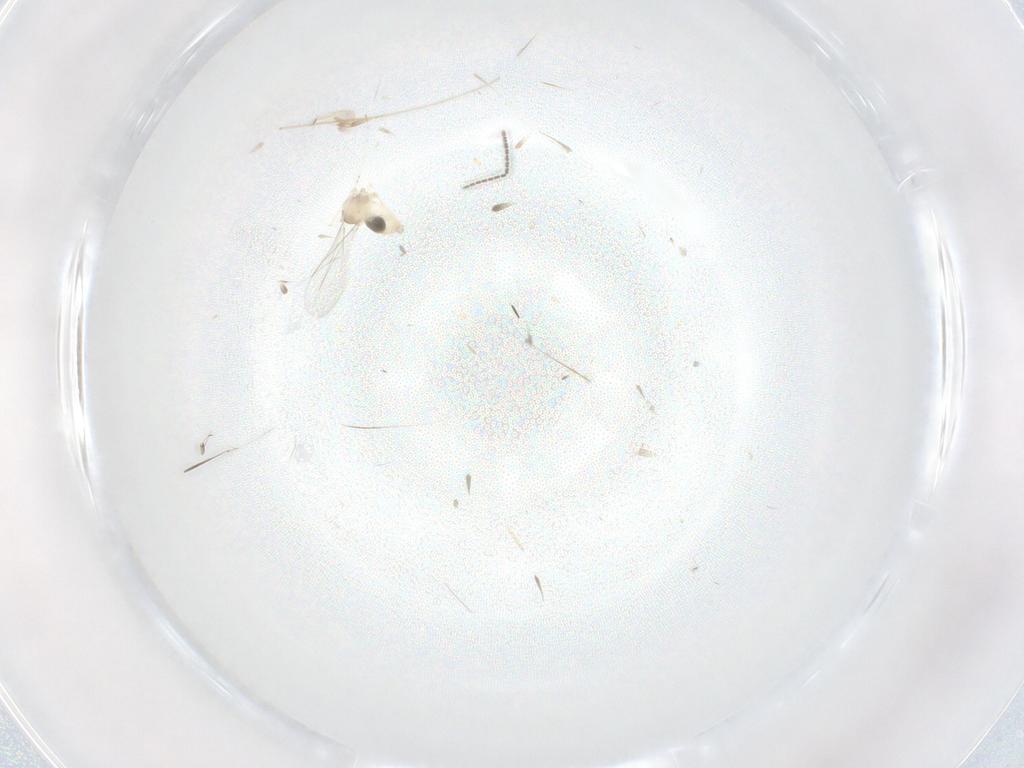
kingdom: Animalia
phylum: Arthropoda
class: Insecta
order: Diptera
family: Cecidomyiidae
